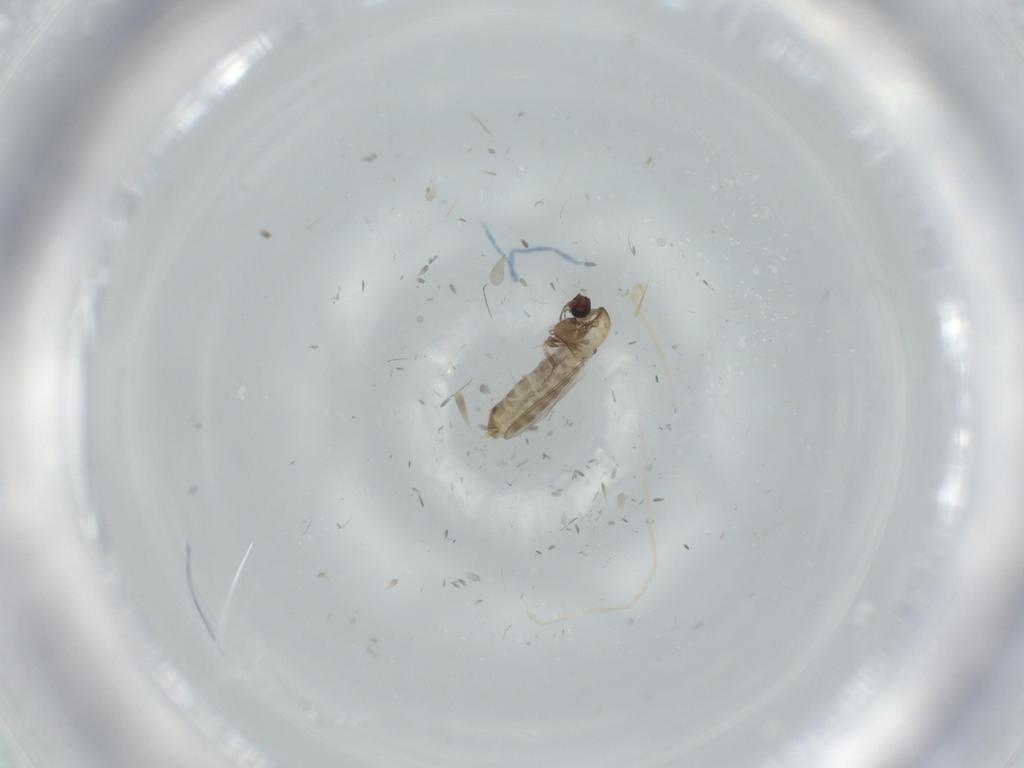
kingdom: Animalia
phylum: Arthropoda
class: Insecta
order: Diptera
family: Chironomidae
